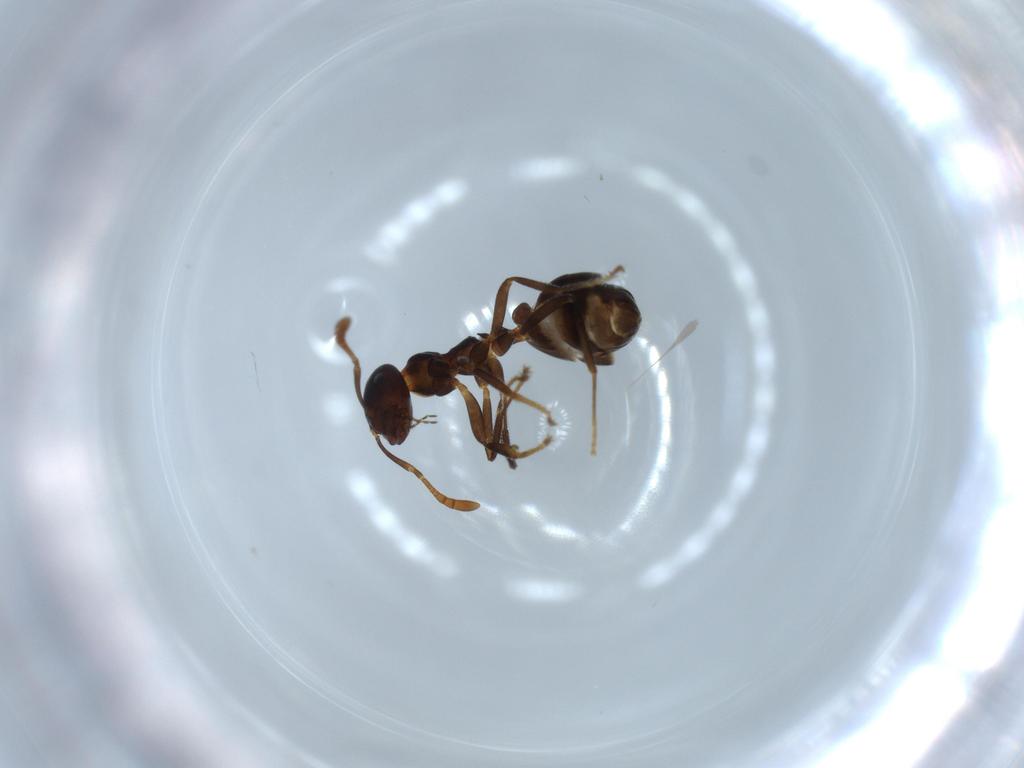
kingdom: Animalia
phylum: Arthropoda
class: Insecta
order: Hymenoptera
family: Formicidae
